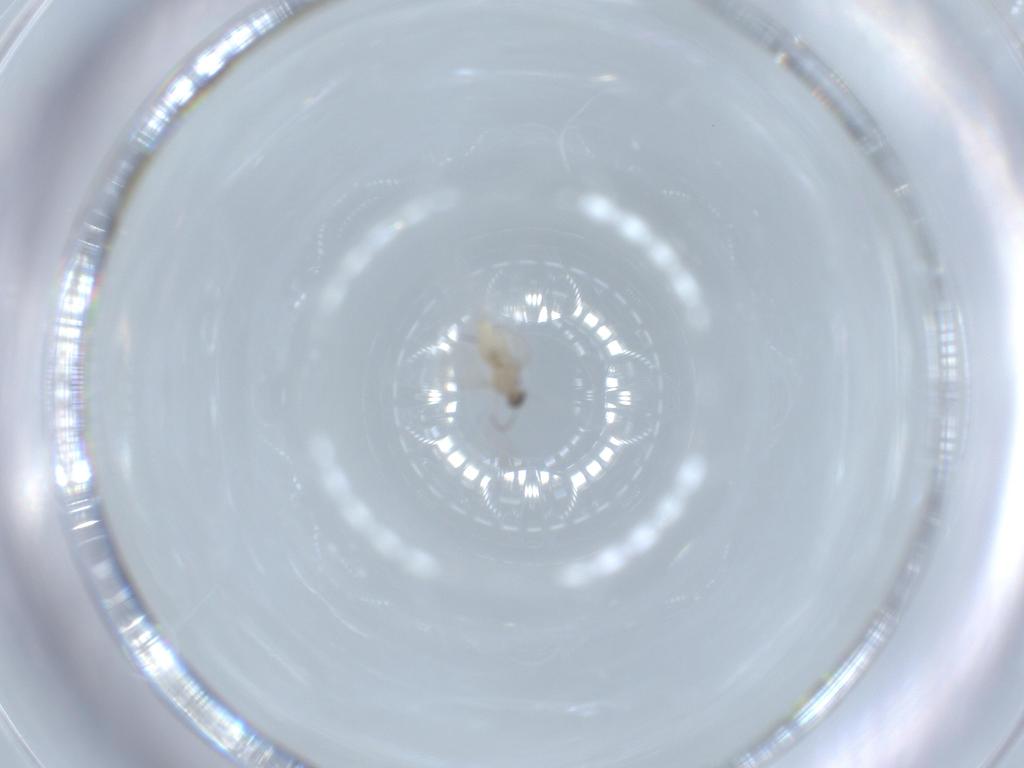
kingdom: Animalia
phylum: Arthropoda
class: Insecta
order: Diptera
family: Cecidomyiidae
